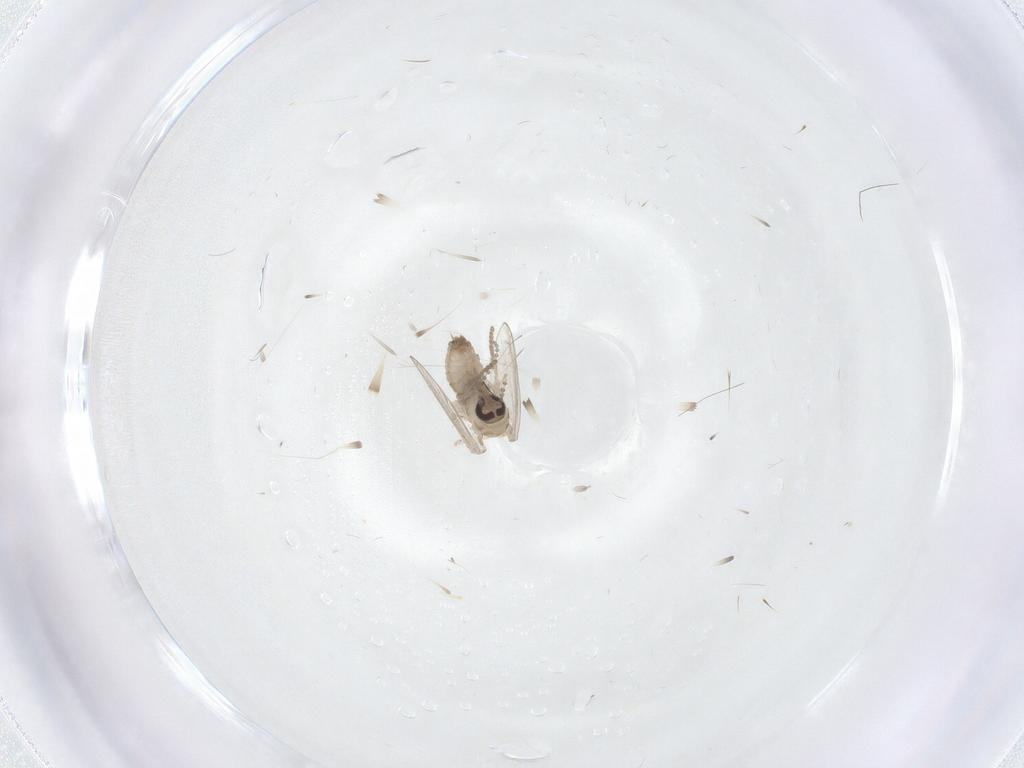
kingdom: Animalia
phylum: Arthropoda
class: Insecta
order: Diptera
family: Psychodidae
